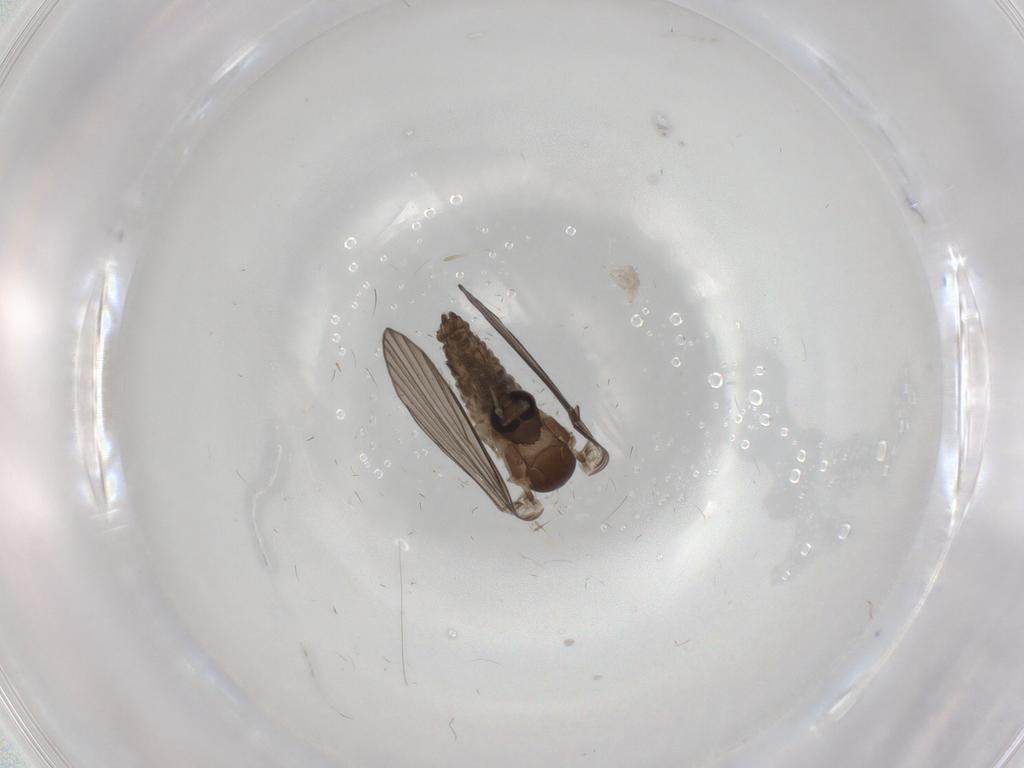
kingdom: Animalia
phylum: Arthropoda
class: Insecta
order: Diptera
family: Psychodidae
